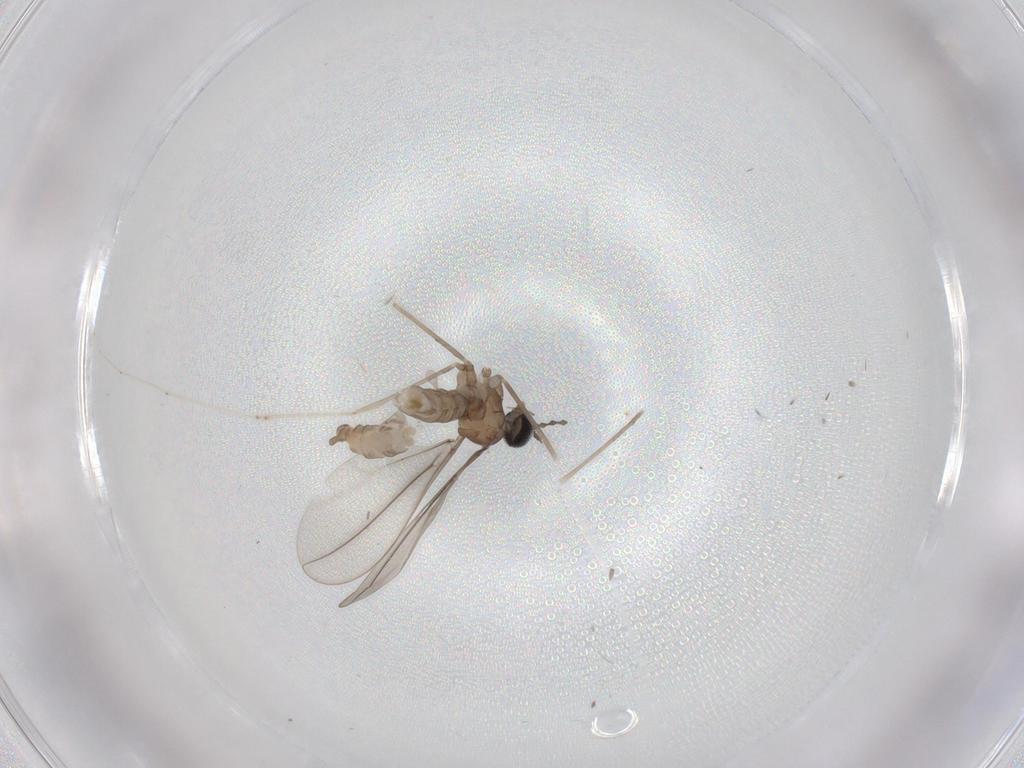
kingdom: Animalia
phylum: Arthropoda
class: Insecta
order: Diptera
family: Cecidomyiidae
